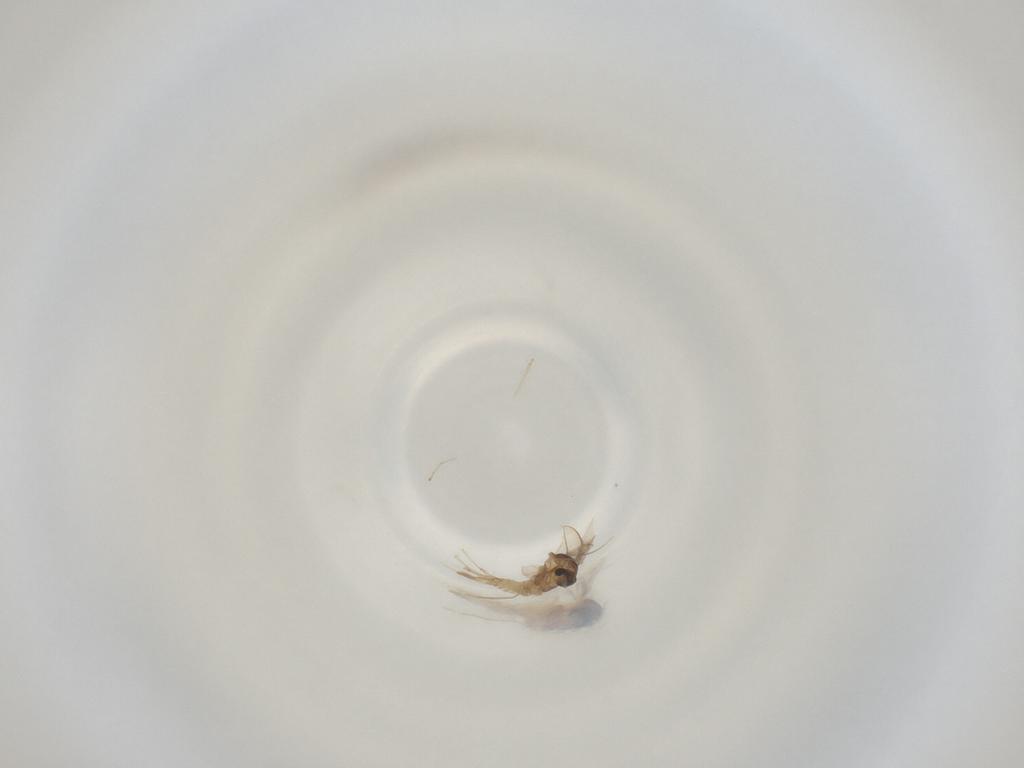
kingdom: Animalia
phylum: Arthropoda
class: Insecta
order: Diptera
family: Cecidomyiidae
